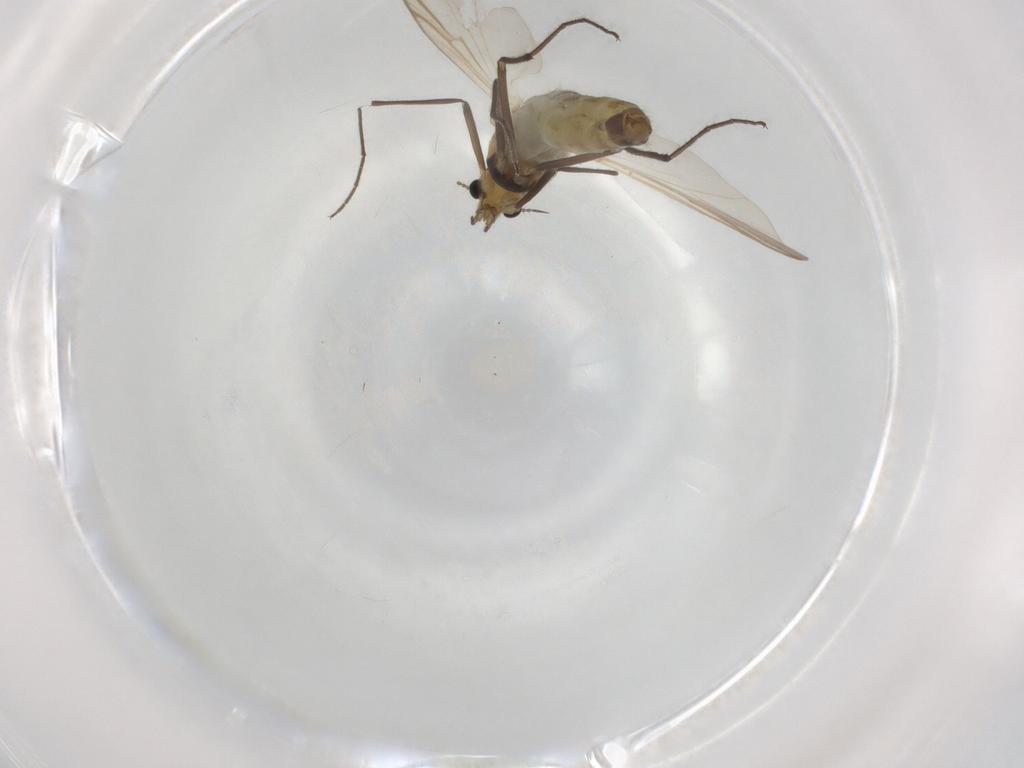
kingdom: Animalia
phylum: Arthropoda
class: Insecta
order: Diptera
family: Chironomidae
